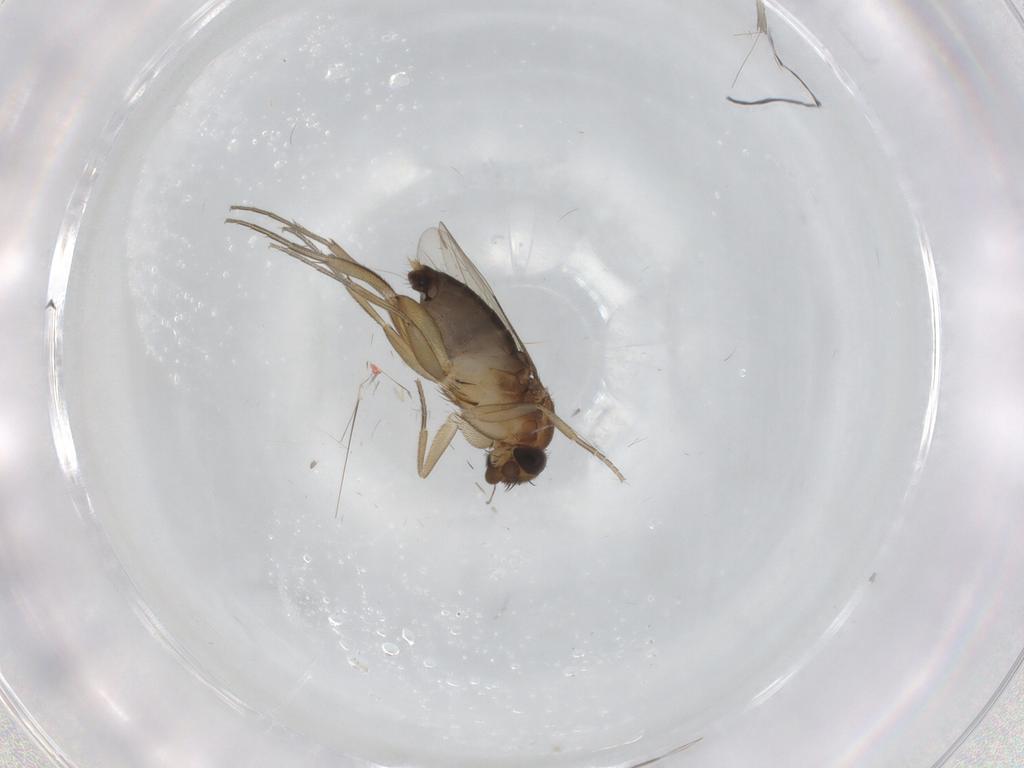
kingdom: Animalia
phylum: Arthropoda
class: Insecta
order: Diptera
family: Phoridae
